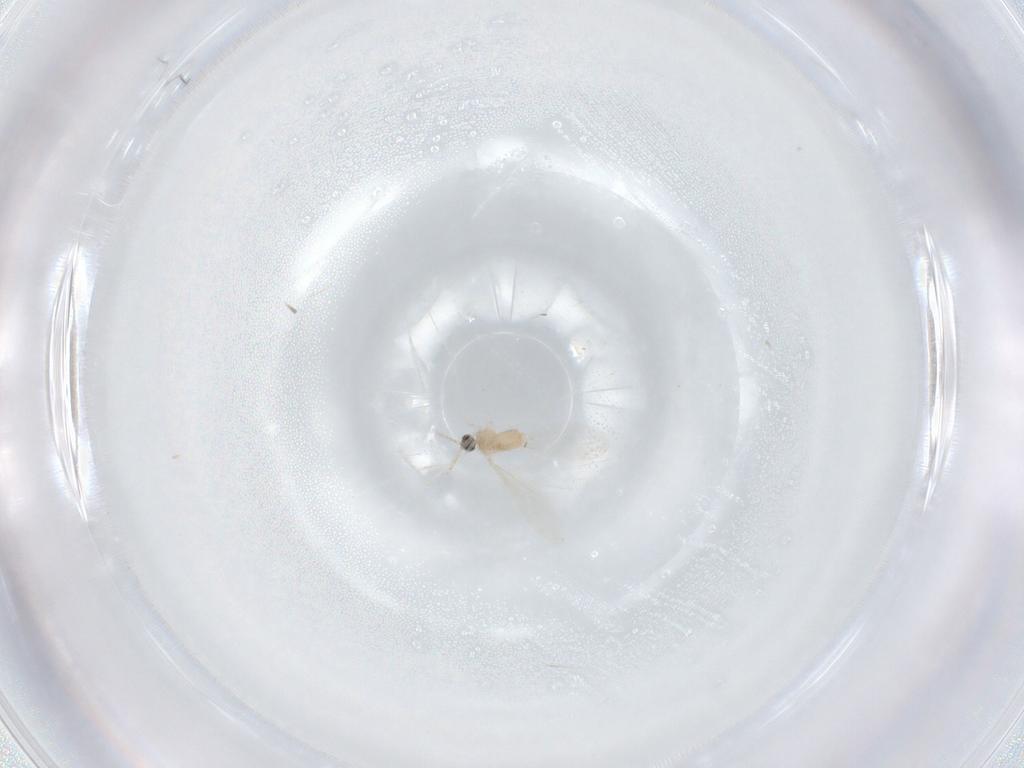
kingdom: Animalia
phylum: Arthropoda
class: Insecta
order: Diptera
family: Cecidomyiidae
